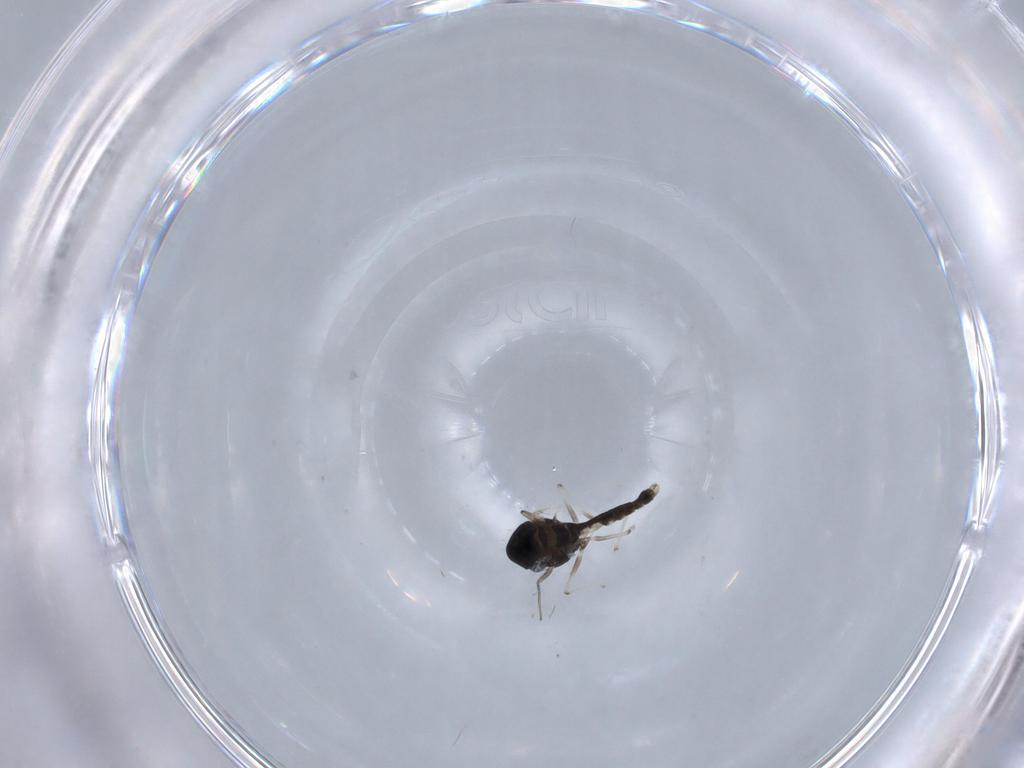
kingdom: Animalia
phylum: Arthropoda
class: Insecta
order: Diptera
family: Chironomidae
